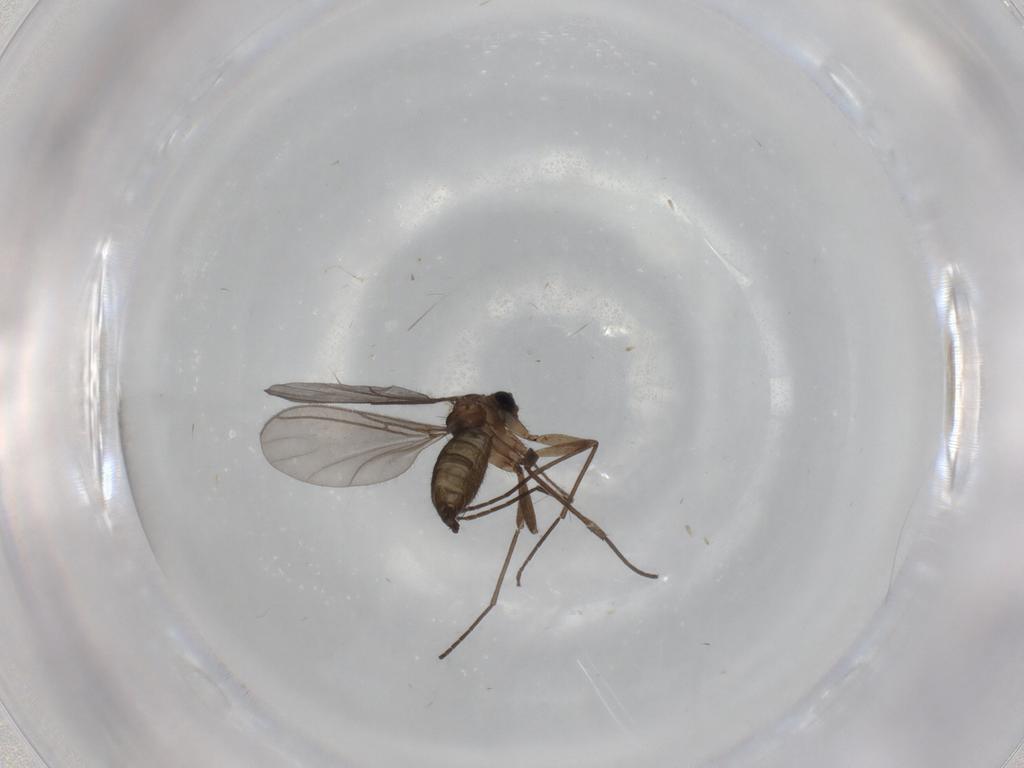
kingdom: Animalia
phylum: Arthropoda
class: Insecta
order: Diptera
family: Sciaridae
